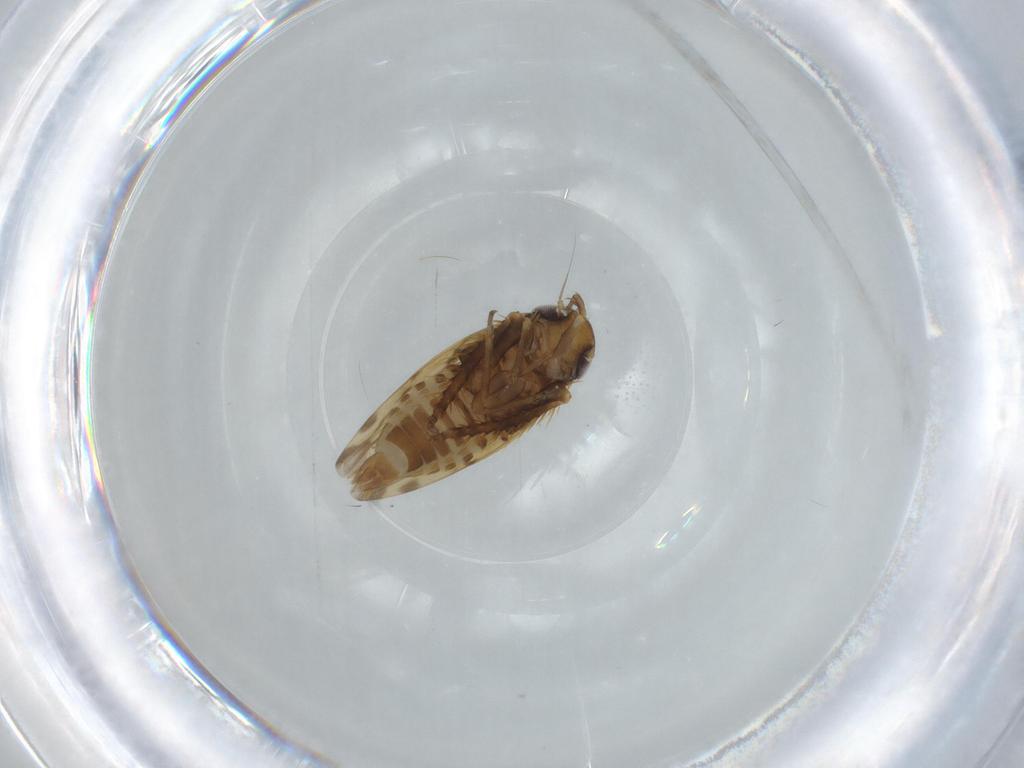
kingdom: Animalia
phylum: Arthropoda
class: Insecta
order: Hemiptera
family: Cicadellidae
